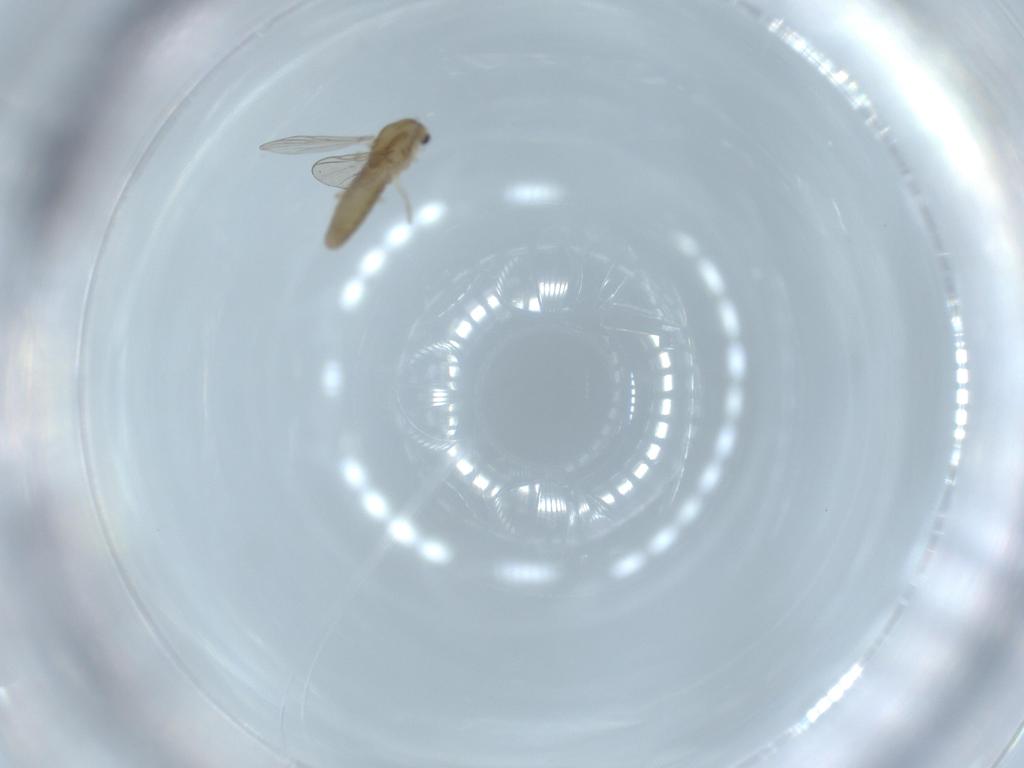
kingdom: Animalia
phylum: Arthropoda
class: Insecta
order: Diptera
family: Chironomidae
